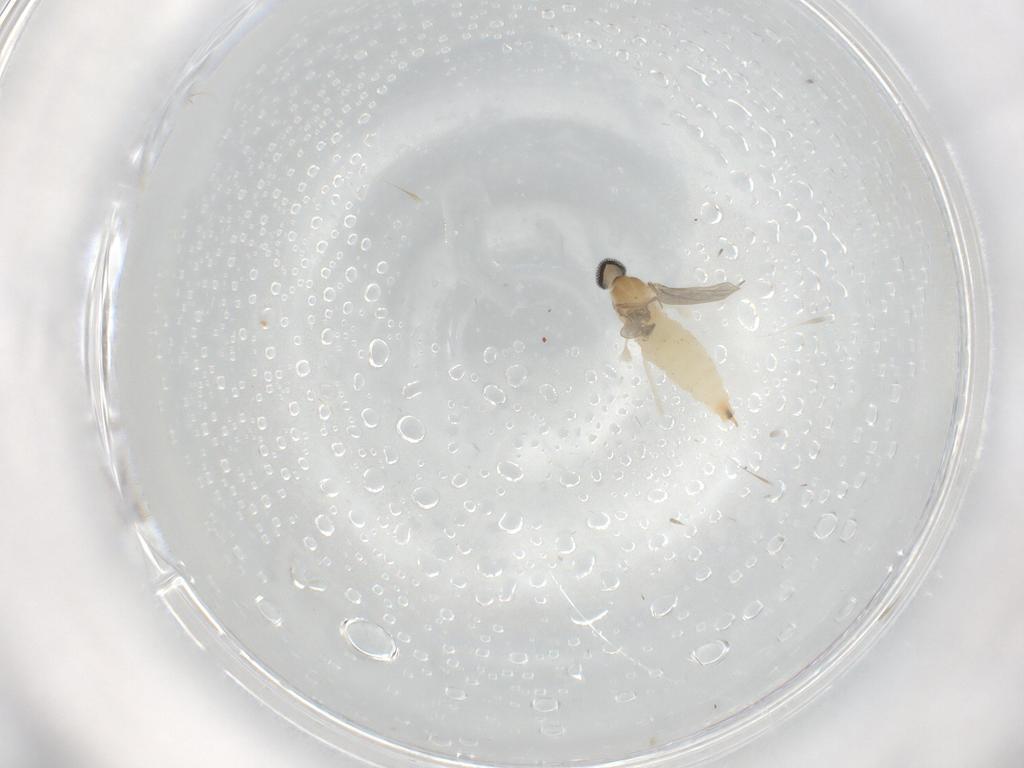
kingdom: Animalia
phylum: Arthropoda
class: Insecta
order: Diptera
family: Cecidomyiidae
